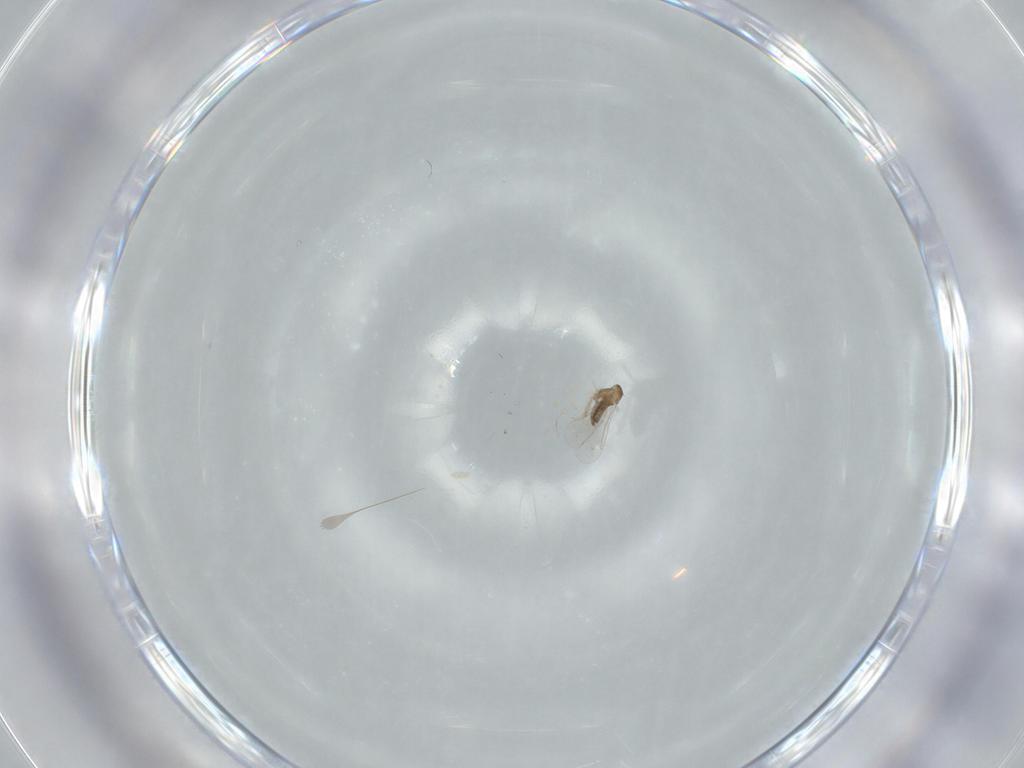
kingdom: Animalia
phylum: Arthropoda
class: Insecta
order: Diptera
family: Cecidomyiidae
